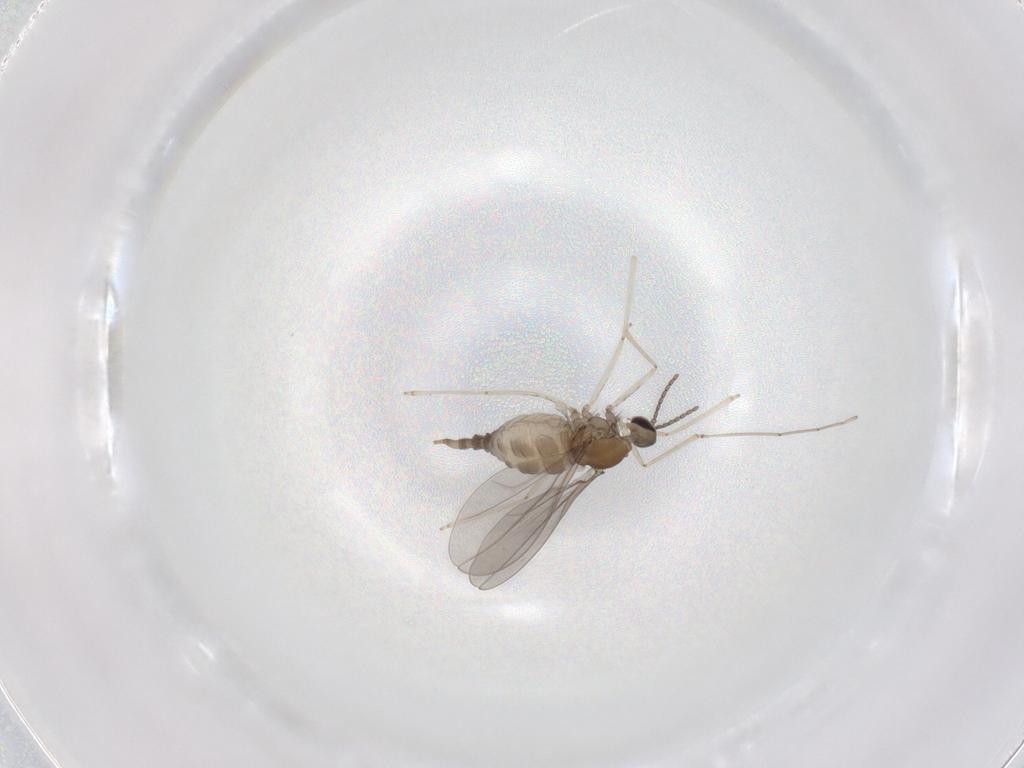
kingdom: Animalia
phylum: Arthropoda
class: Insecta
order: Diptera
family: Cecidomyiidae
